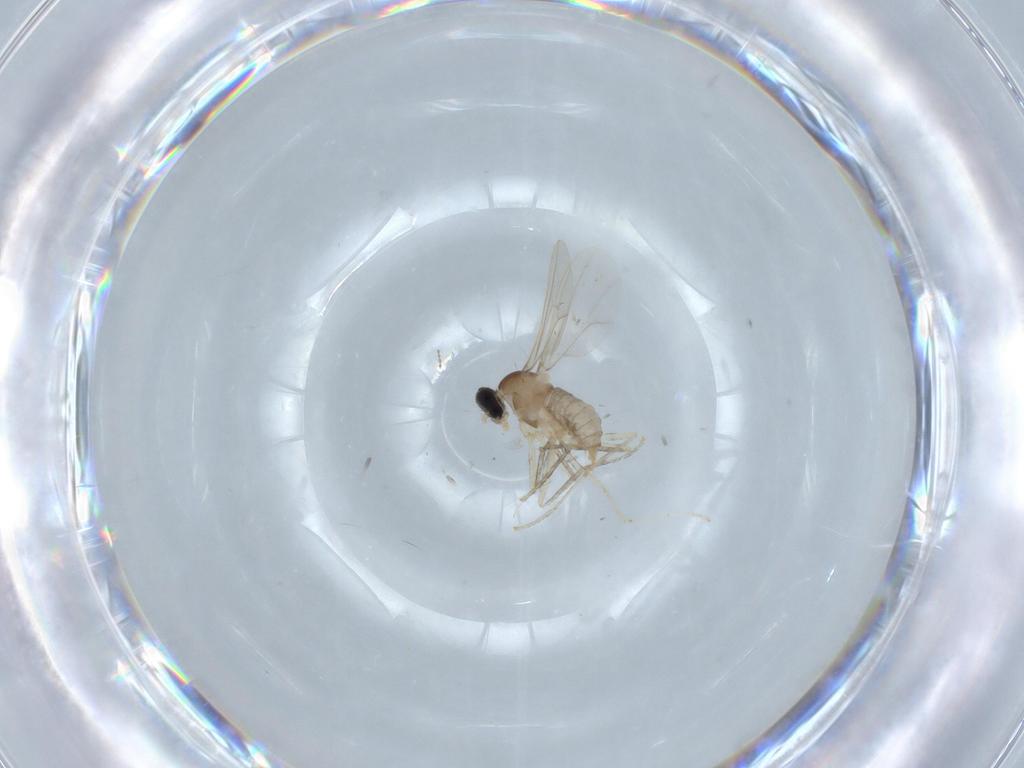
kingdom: Animalia
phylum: Arthropoda
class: Insecta
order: Diptera
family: Cecidomyiidae
